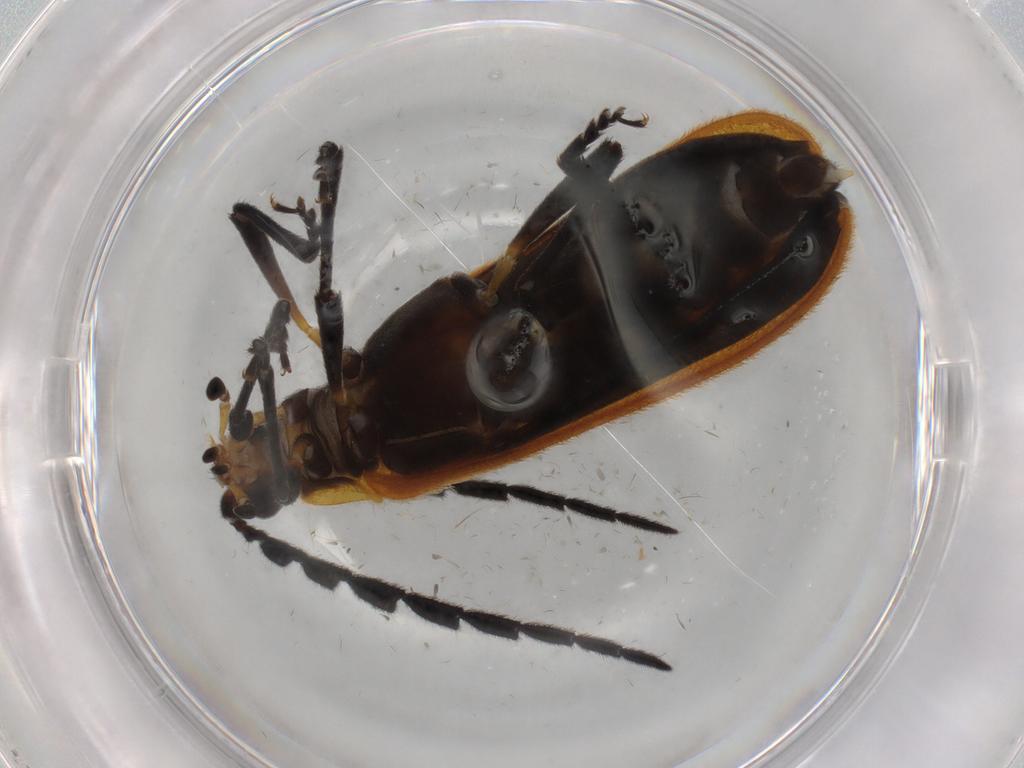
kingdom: Animalia
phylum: Arthropoda
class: Insecta
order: Coleoptera
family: Lycidae
